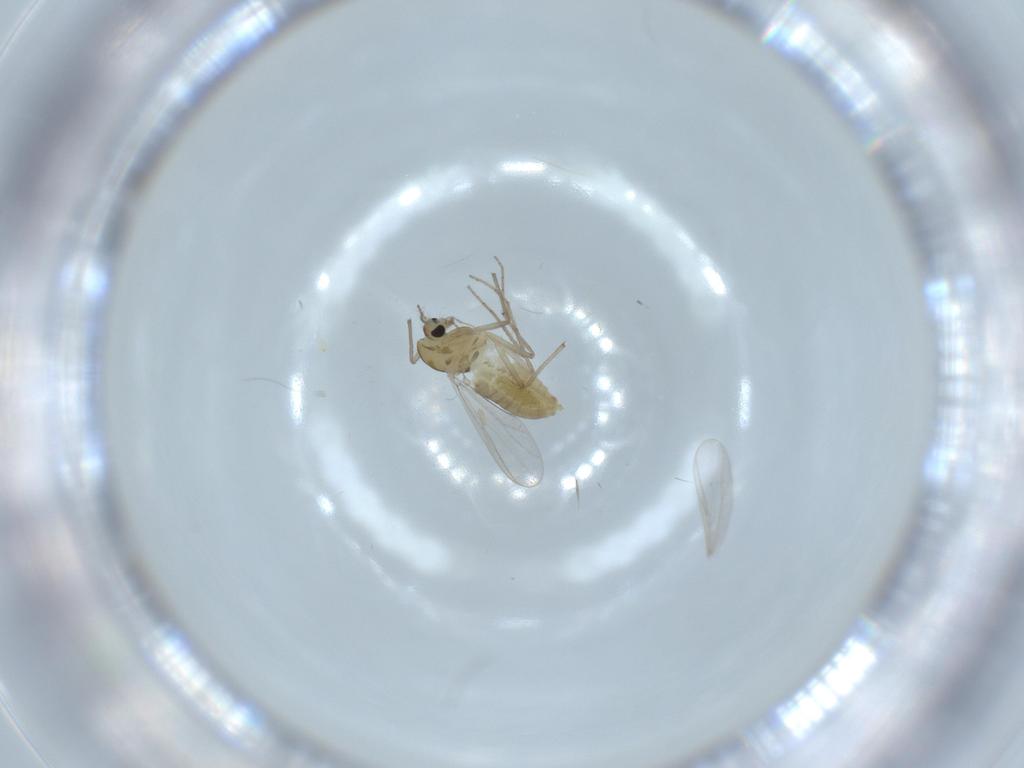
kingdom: Animalia
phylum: Arthropoda
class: Insecta
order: Diptera
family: Chironomidae
